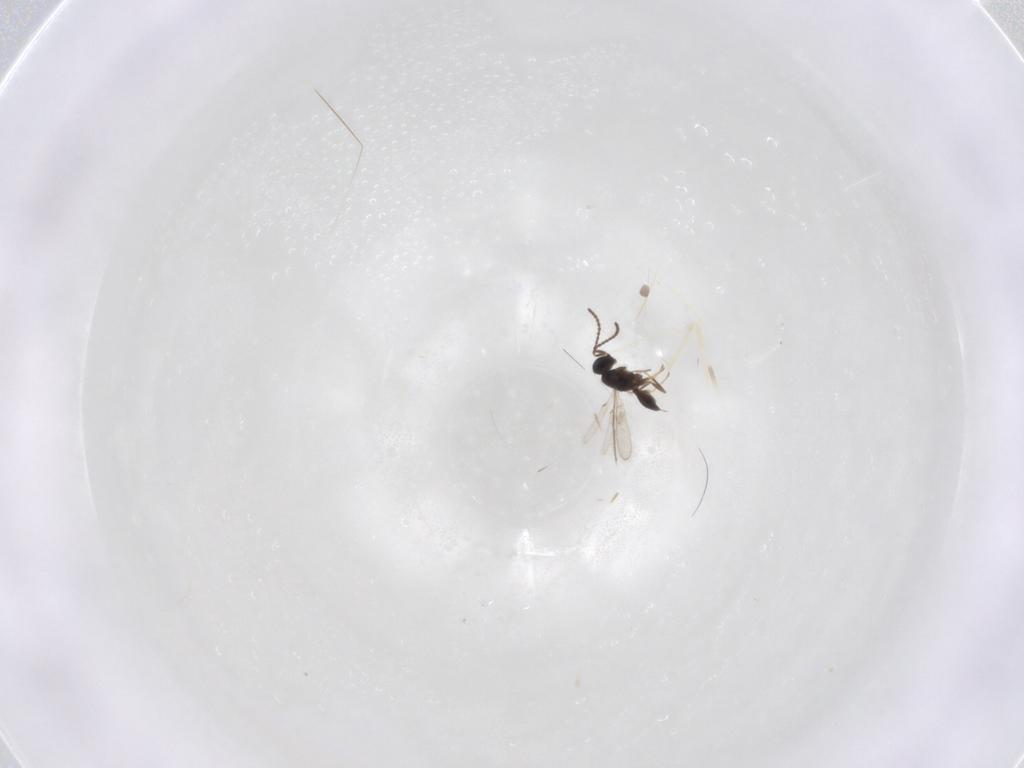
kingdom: Animalia
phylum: Arthropoda
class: Insecta
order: Hymenoptera
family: Scelionidae
